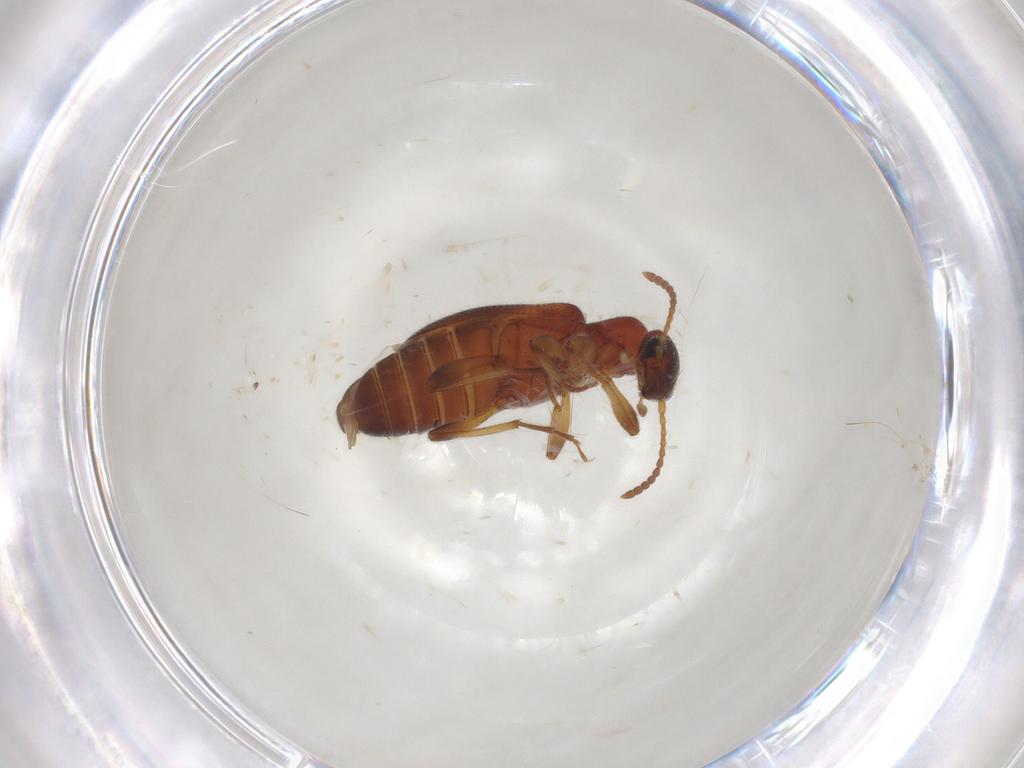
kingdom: Animalia
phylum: Arthropoda
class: Insecta
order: Coleoptera
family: Anthicidae
